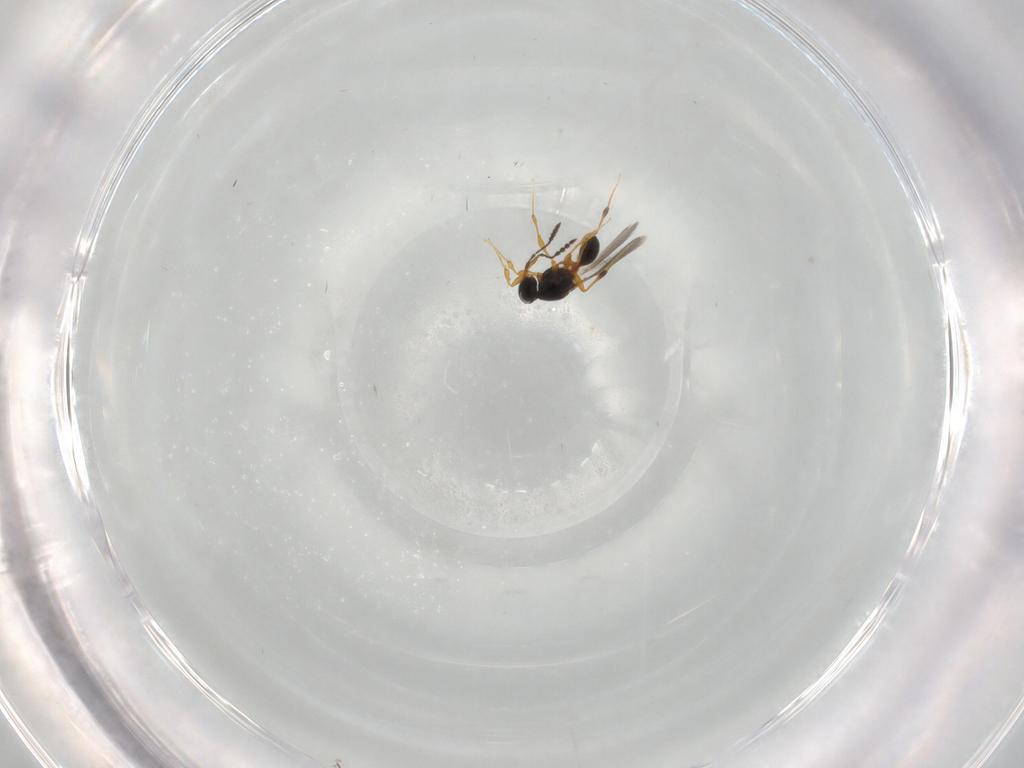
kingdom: Animalia
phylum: Arthropoda
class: Insecta
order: Hymenoptera
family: Platygastridae
